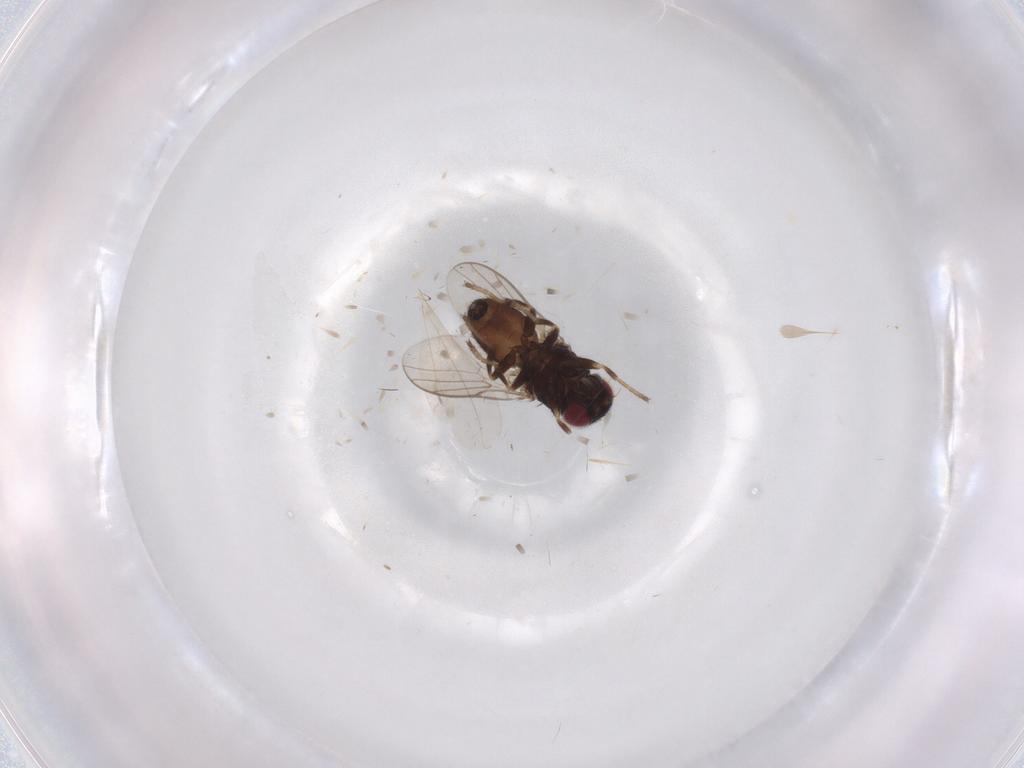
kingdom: Animalia
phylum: Arthropoda
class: Insecta
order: Diptera
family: Chloropidae
